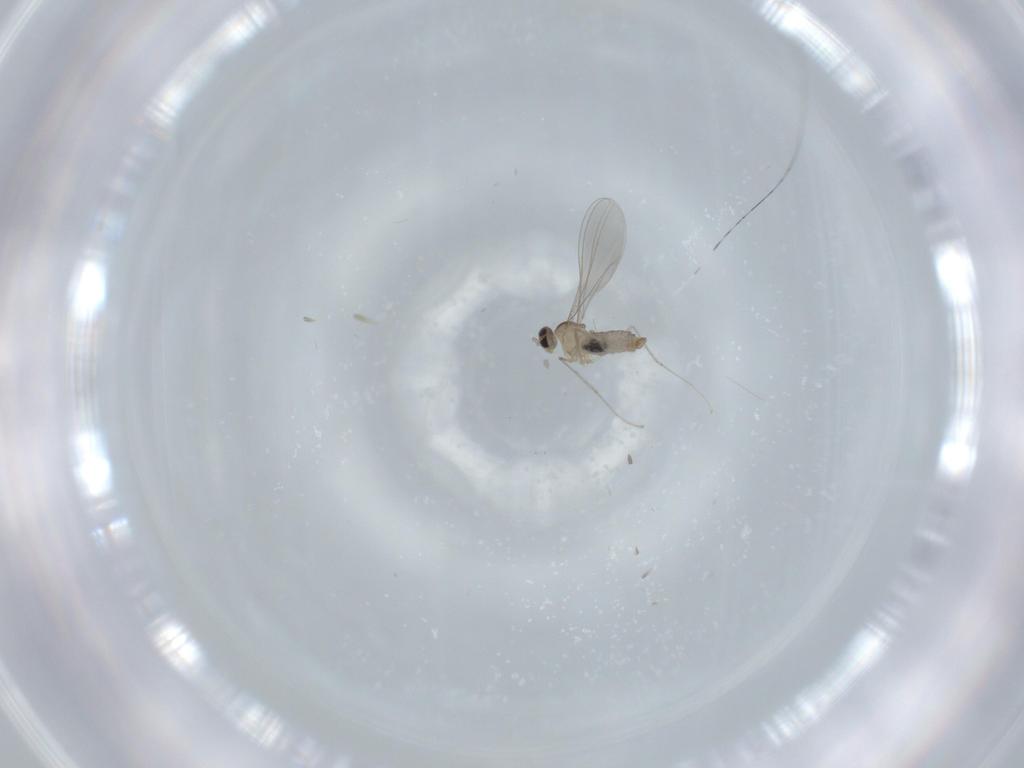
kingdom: Animalia
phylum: Arthropoda
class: Insecta
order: Diptera
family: Cecidomyiidae
